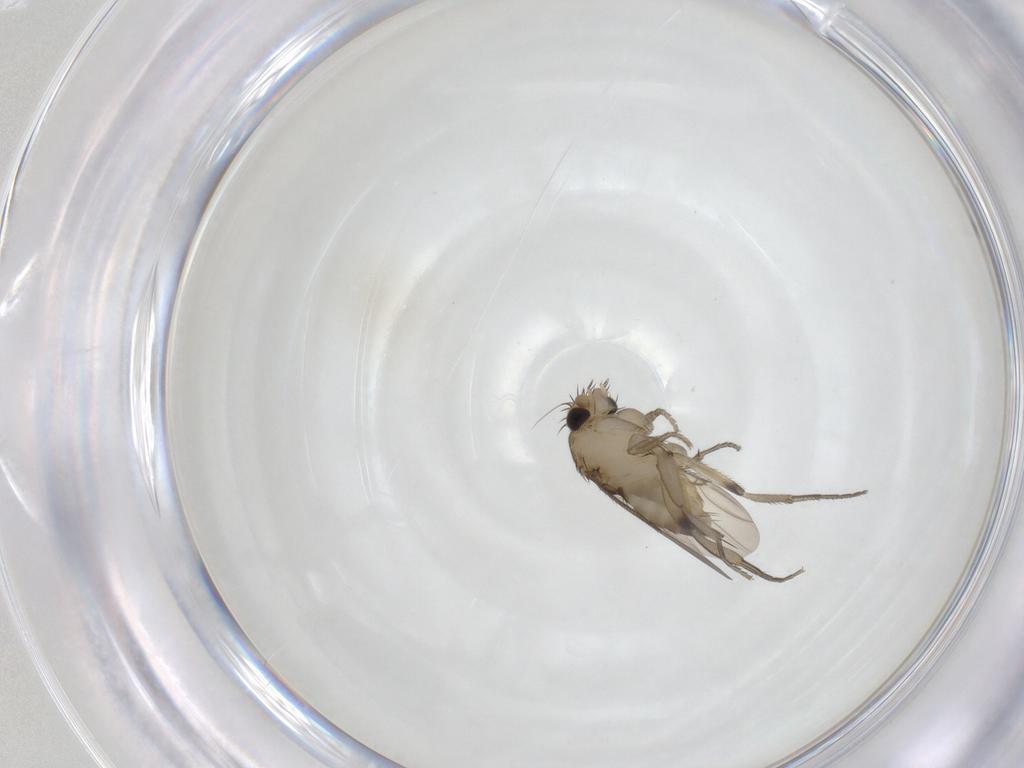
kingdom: Animalia
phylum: Arthropoda
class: Insecta
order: Diptera
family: Phoridae
